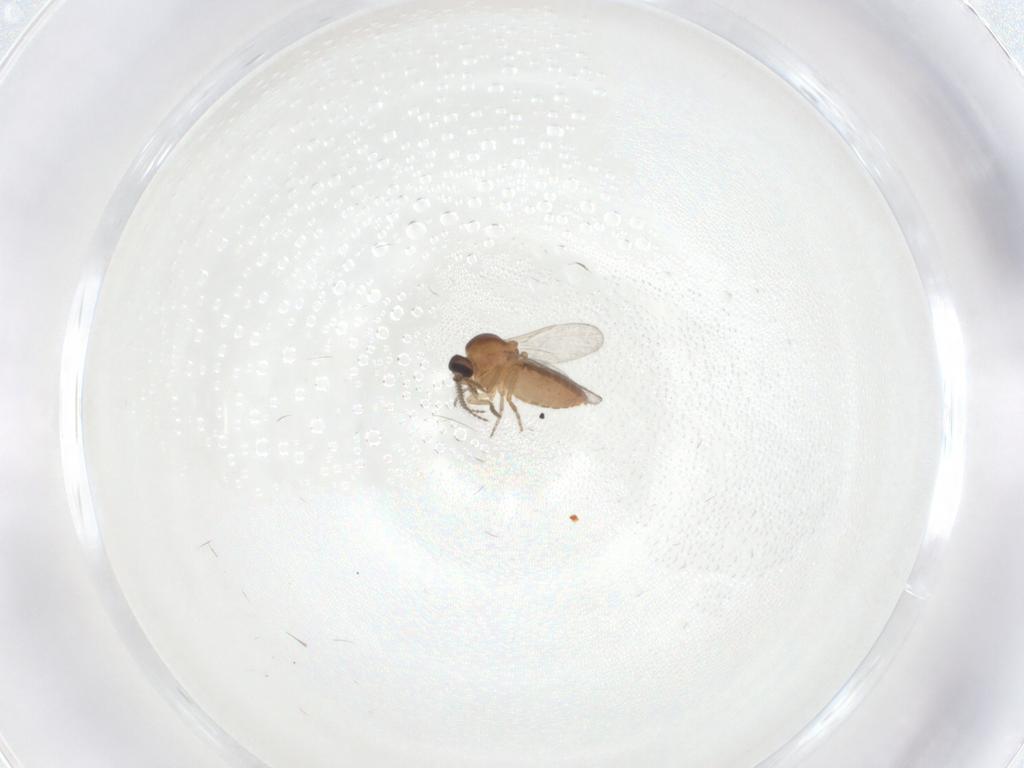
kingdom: Animalia
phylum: Arthropoda
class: Insecta
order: Diptera
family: Ceratopogonidae
